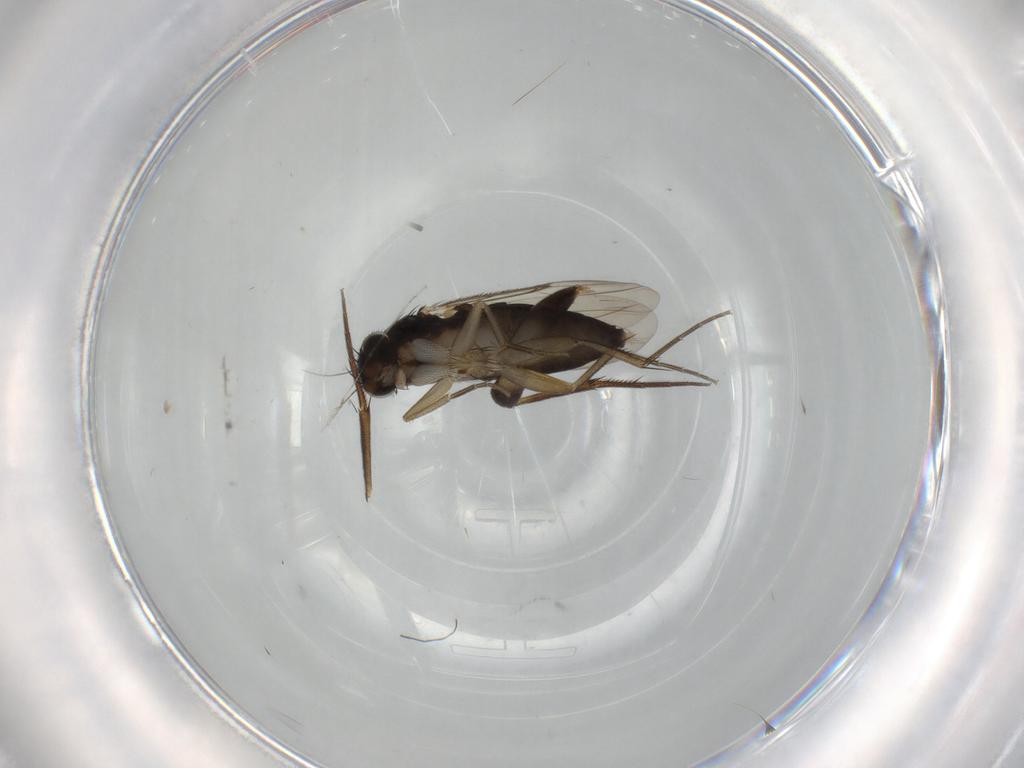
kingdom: Animalia
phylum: Arthropoda
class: Insecta
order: Diptera
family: Phoridae
